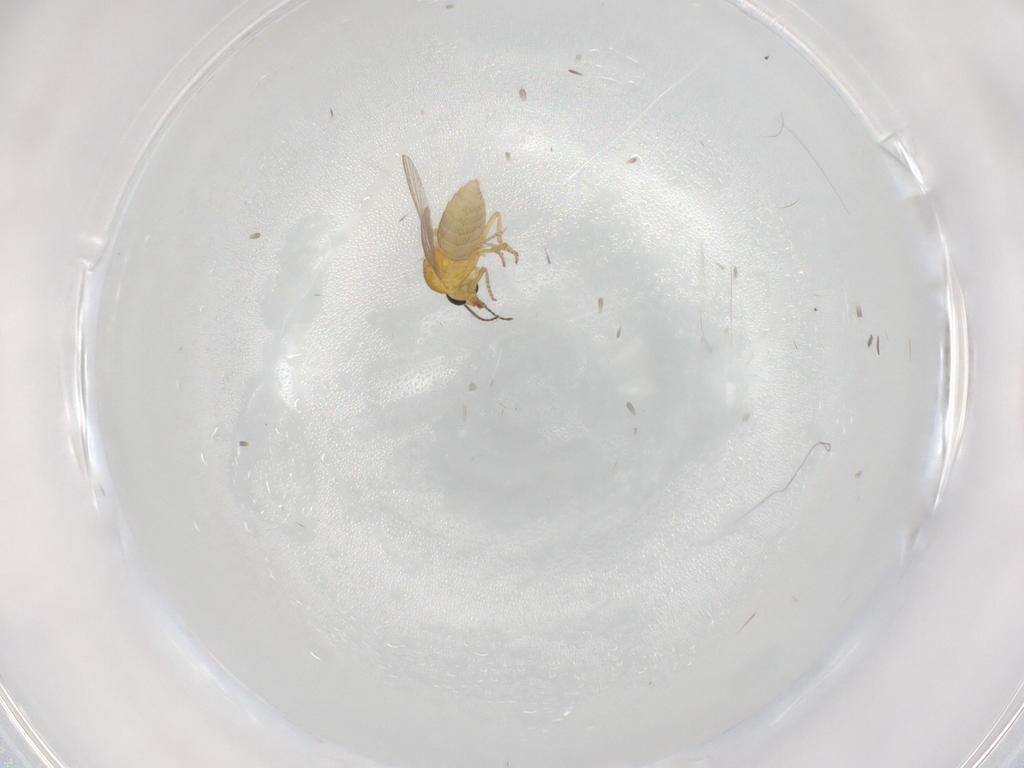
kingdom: Animalia
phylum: Arthropoda
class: Insecta
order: Diptera
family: Ceratopogonidae
